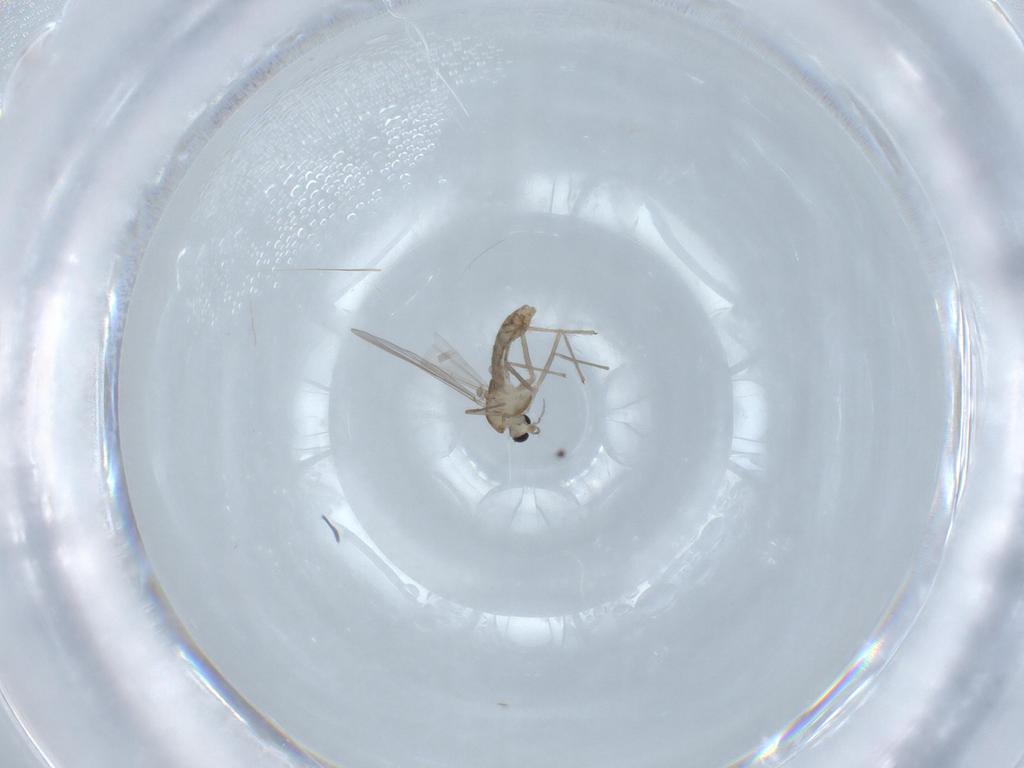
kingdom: Animalia
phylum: Arthropoda
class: Insecta
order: Diptera
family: Chironomidae
